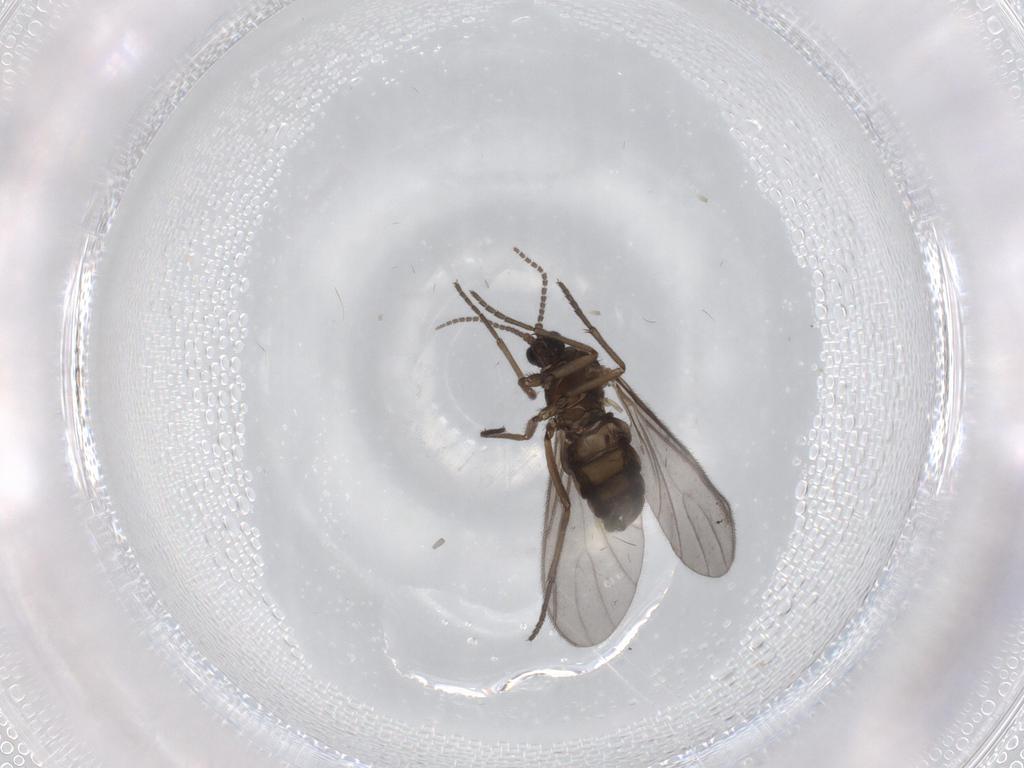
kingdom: Animalia
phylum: Arthropoda
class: Insecta
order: Diptera
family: Sciaridae
